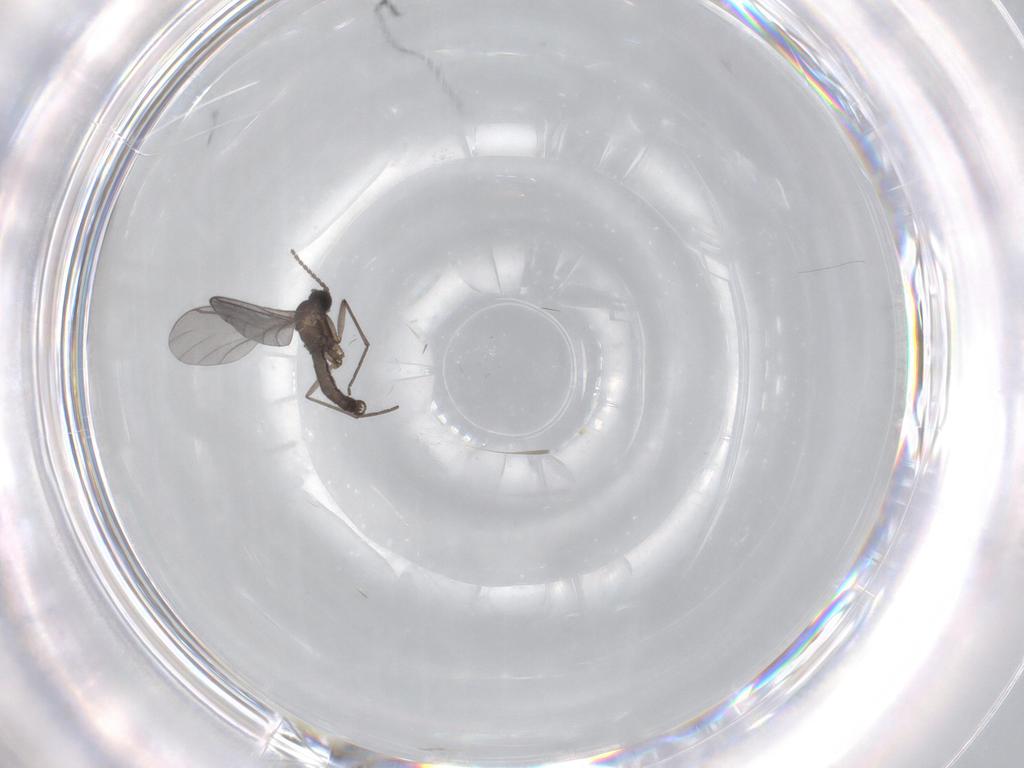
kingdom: Animalia
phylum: Arthropoda
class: Insecta
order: Diptera
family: Sciaridae
